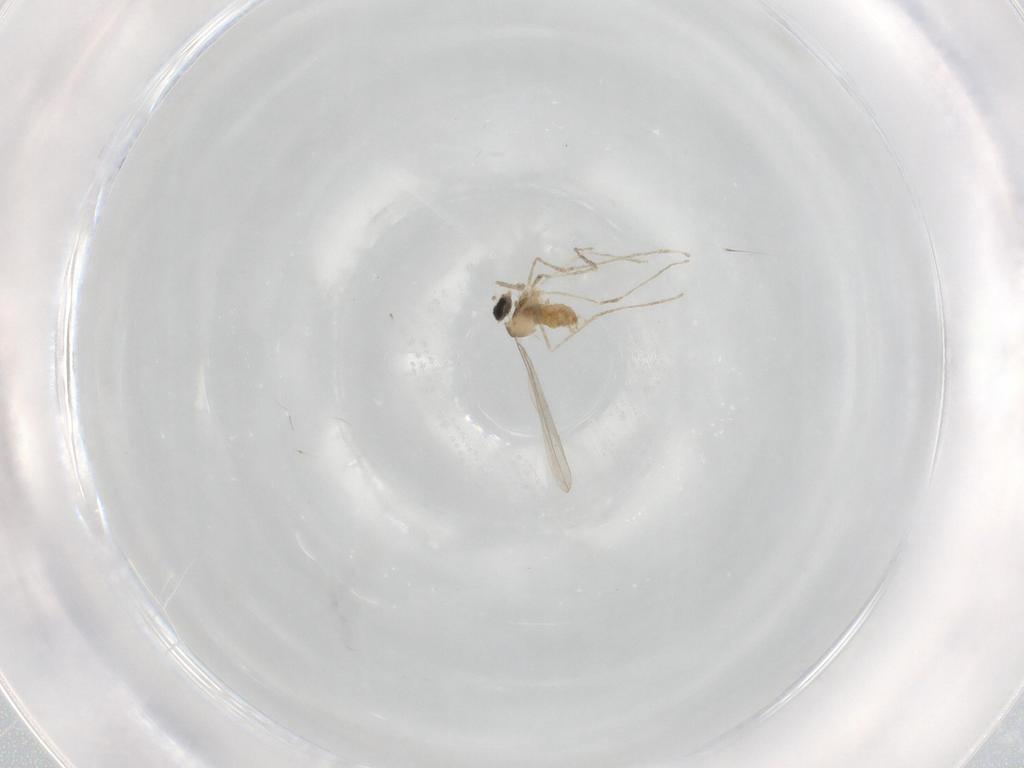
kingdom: Animalia
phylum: Arthropoda
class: Insecta
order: Diptera
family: Cecidomyiidae
